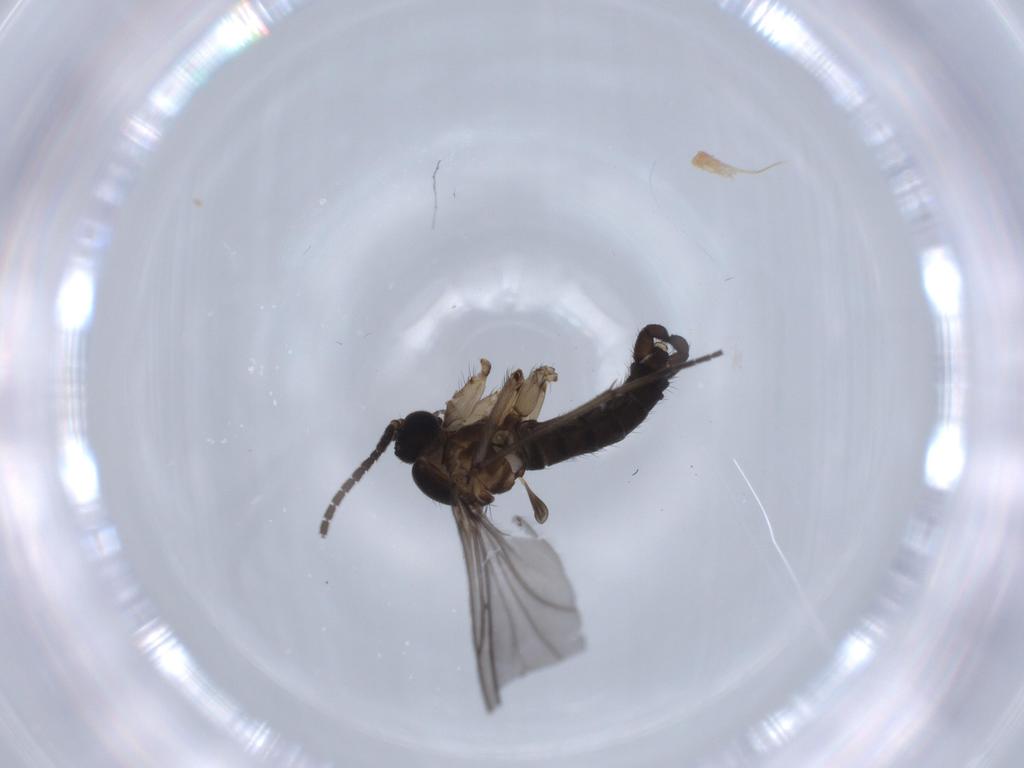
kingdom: Animalia
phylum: Arthropoda
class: Insecta
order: Diptera
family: Sciaridae
